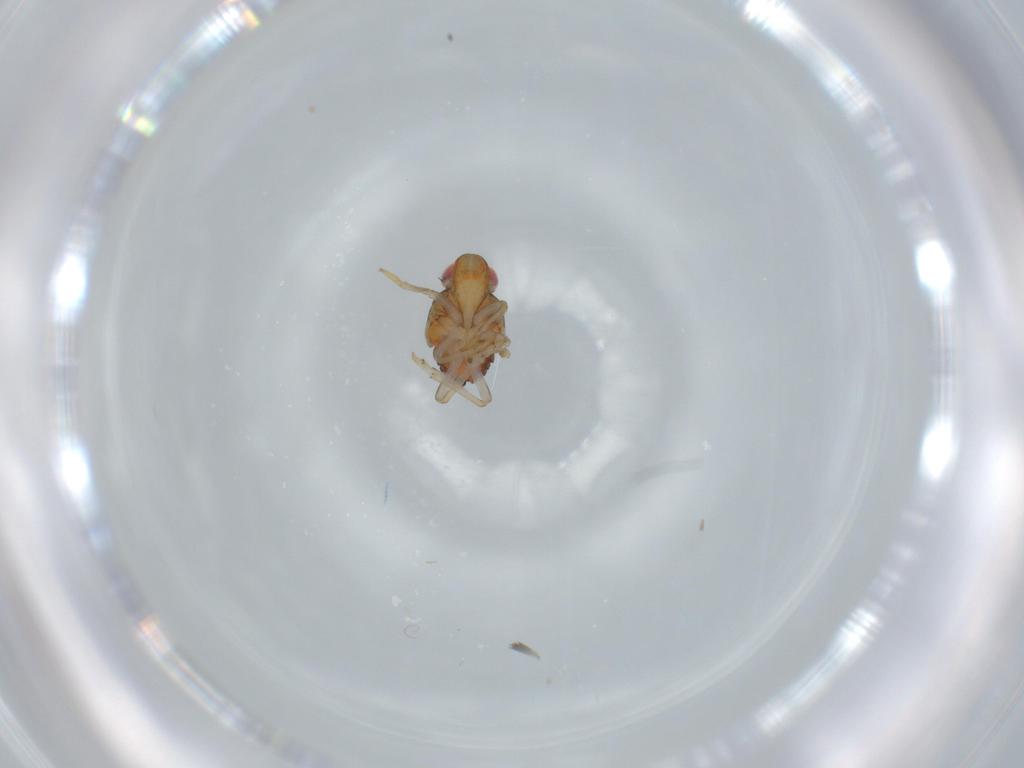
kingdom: Animalia
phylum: Arthropoda
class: Insecta
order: Hemiptera
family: Issidae
